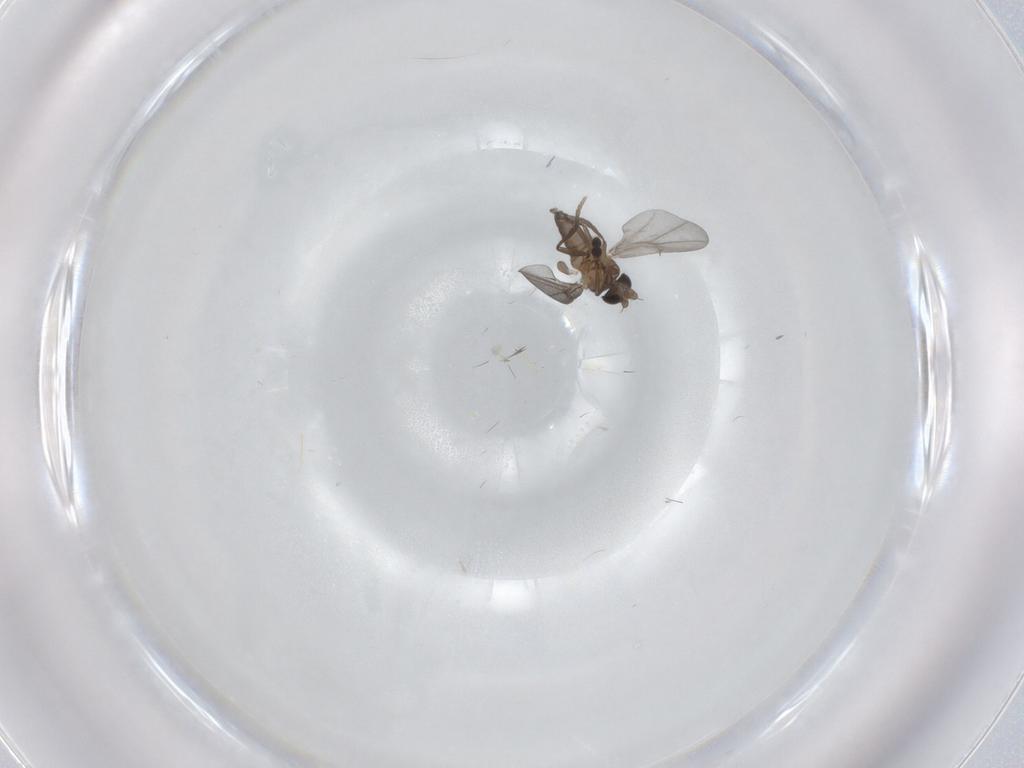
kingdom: Animalia
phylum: Arthropoda
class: Insecta
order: Diptera
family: Phoridae
